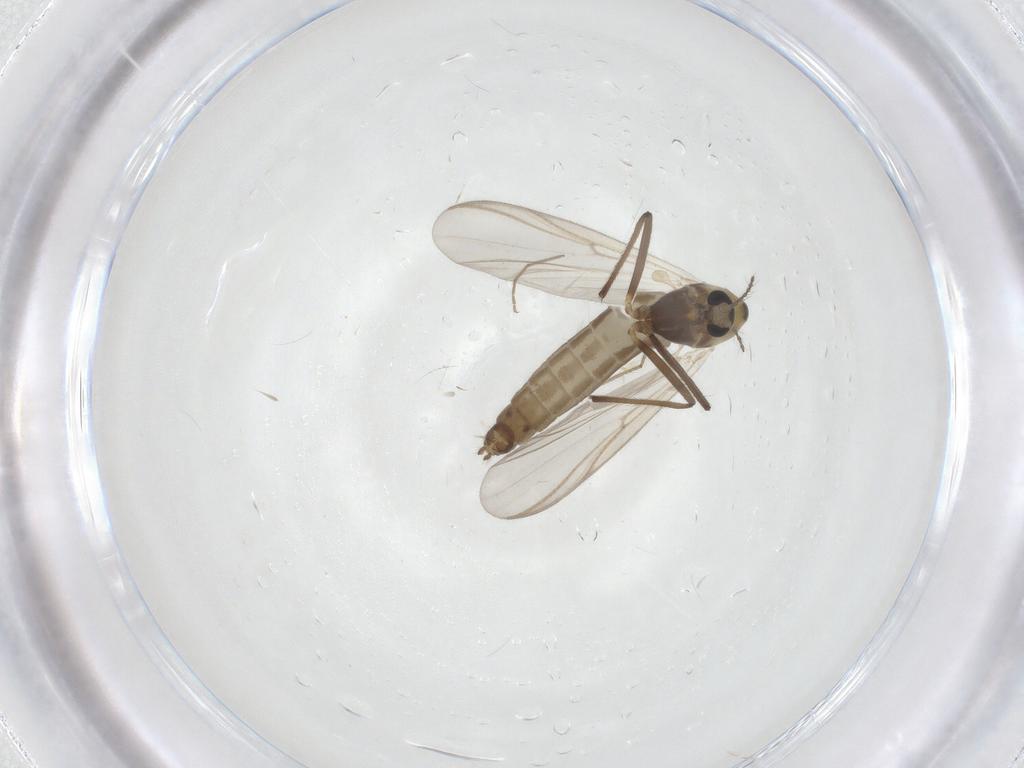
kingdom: Animalia
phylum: Arthropoda
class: Insecta
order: Diptera
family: Chironomidae
